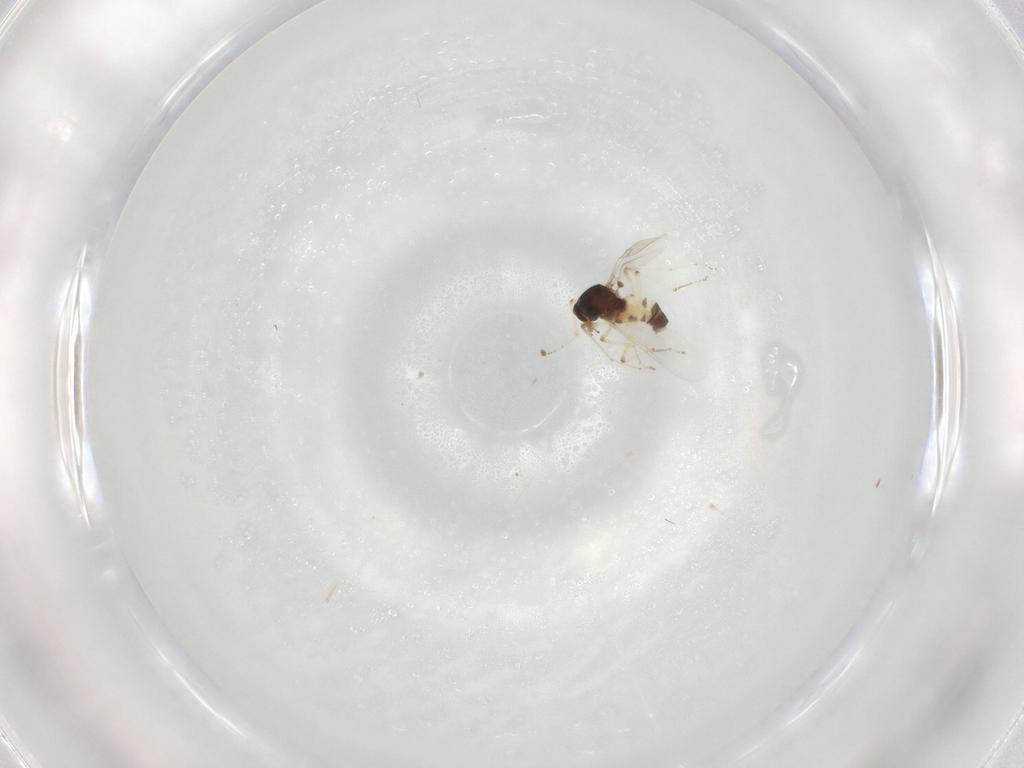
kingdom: Animalia
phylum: Arthropoda
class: Insecta
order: Diptera
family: Ceratopogonidae
